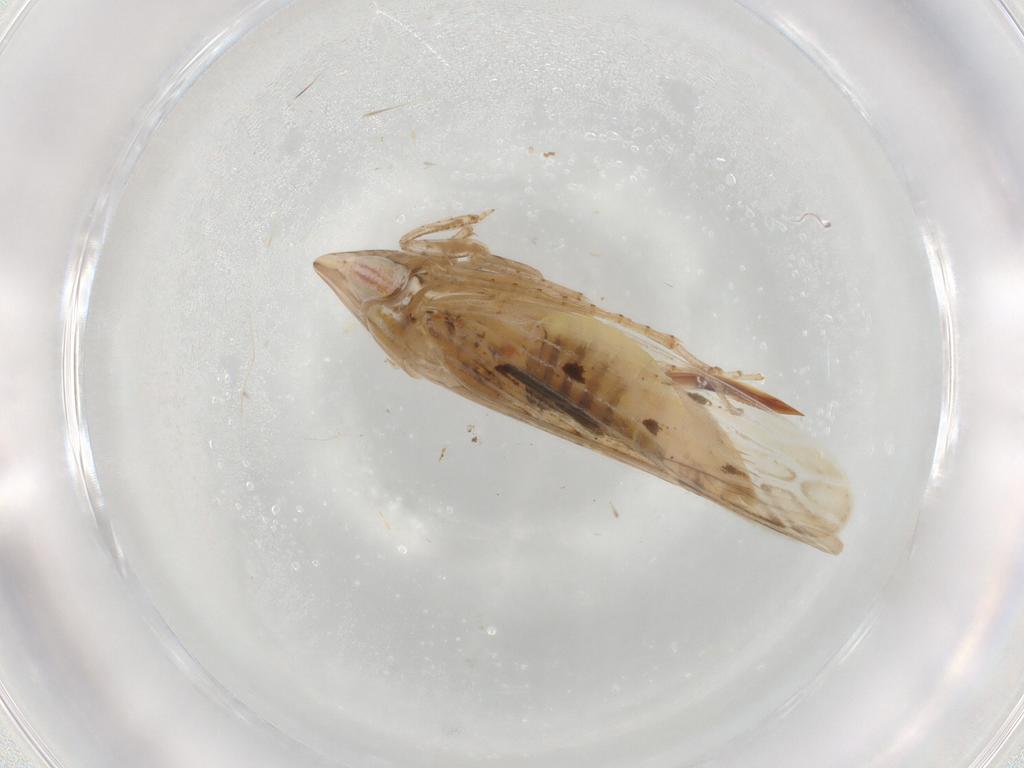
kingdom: Animalia
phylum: Arthropoda
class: Insecta
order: Hemiptera
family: Cicadellidae
